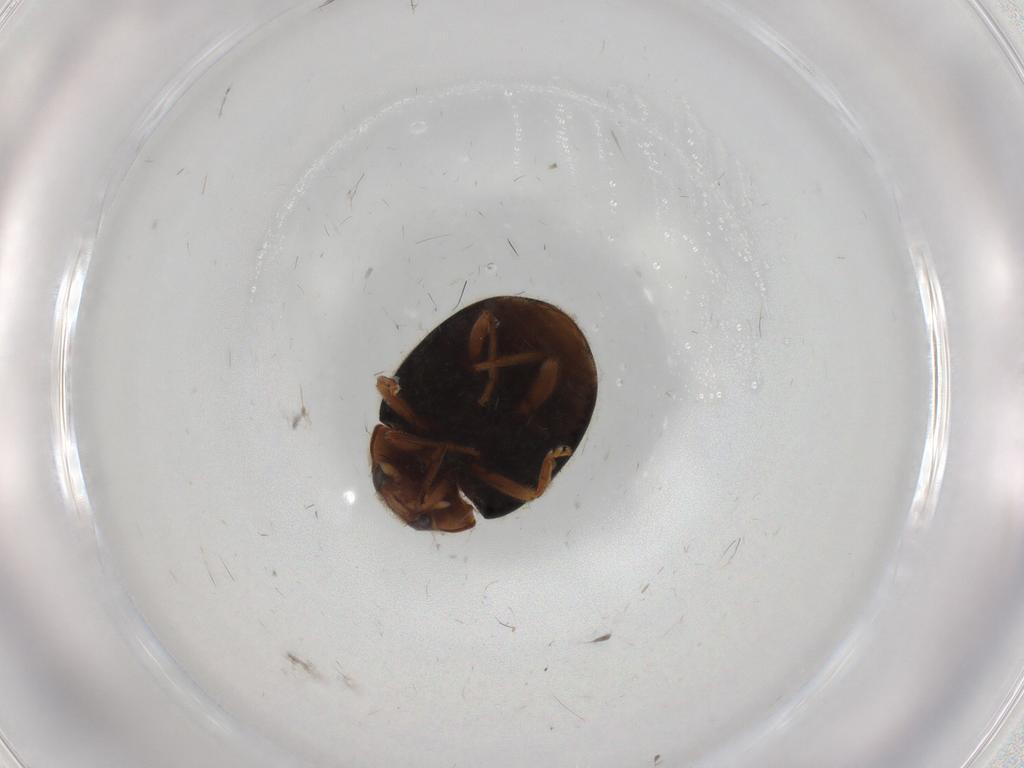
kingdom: Animalia
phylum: Arthropoda
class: Insecta
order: Coleoptera
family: Coccinellidae
